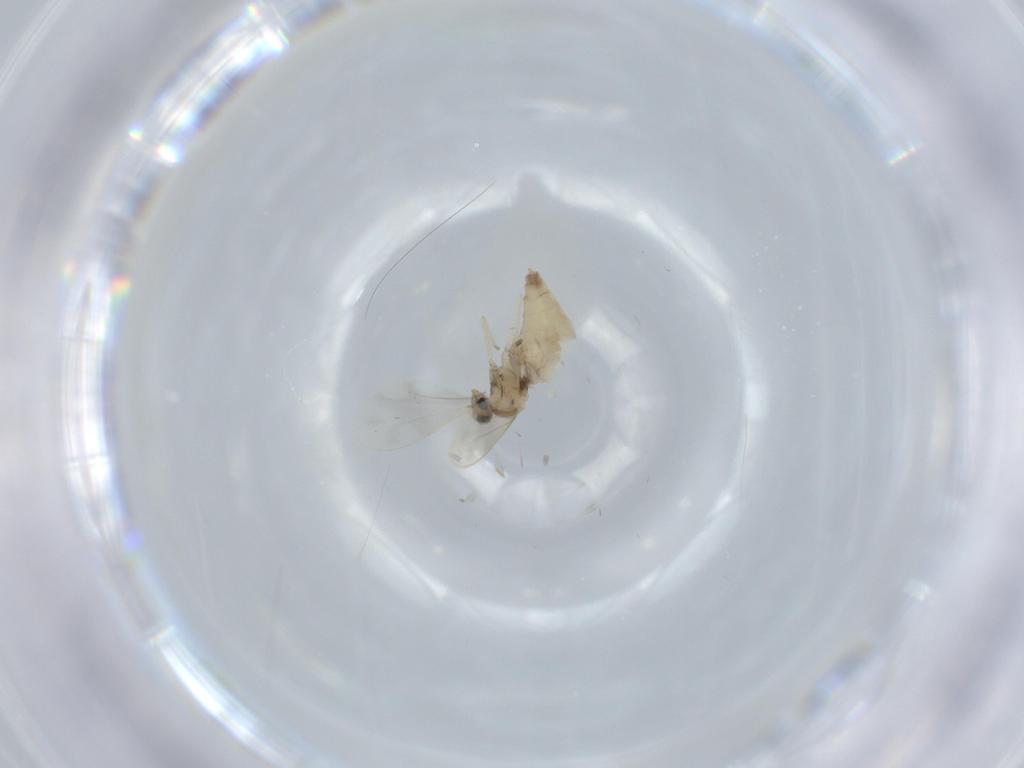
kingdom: Animalia
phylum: Arthropoda
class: Insecta
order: Diptera
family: Cecidomyiidae
